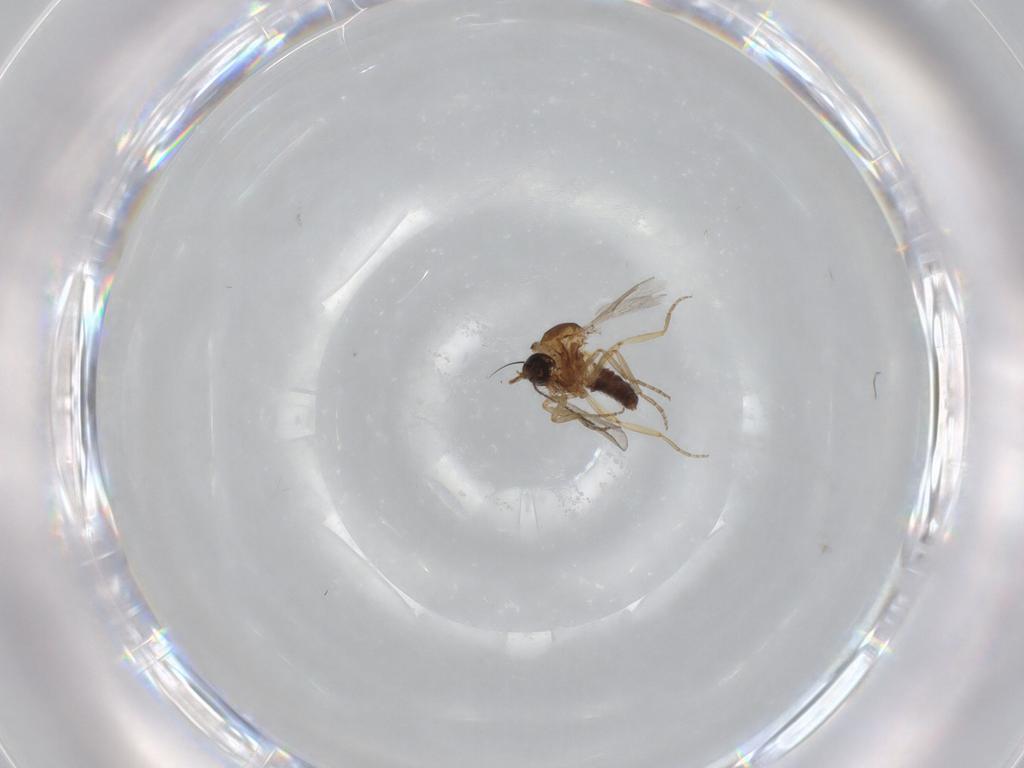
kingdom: Animalia
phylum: Arthropoda
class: Insecta
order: Diptera
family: Ceratopogonidae
